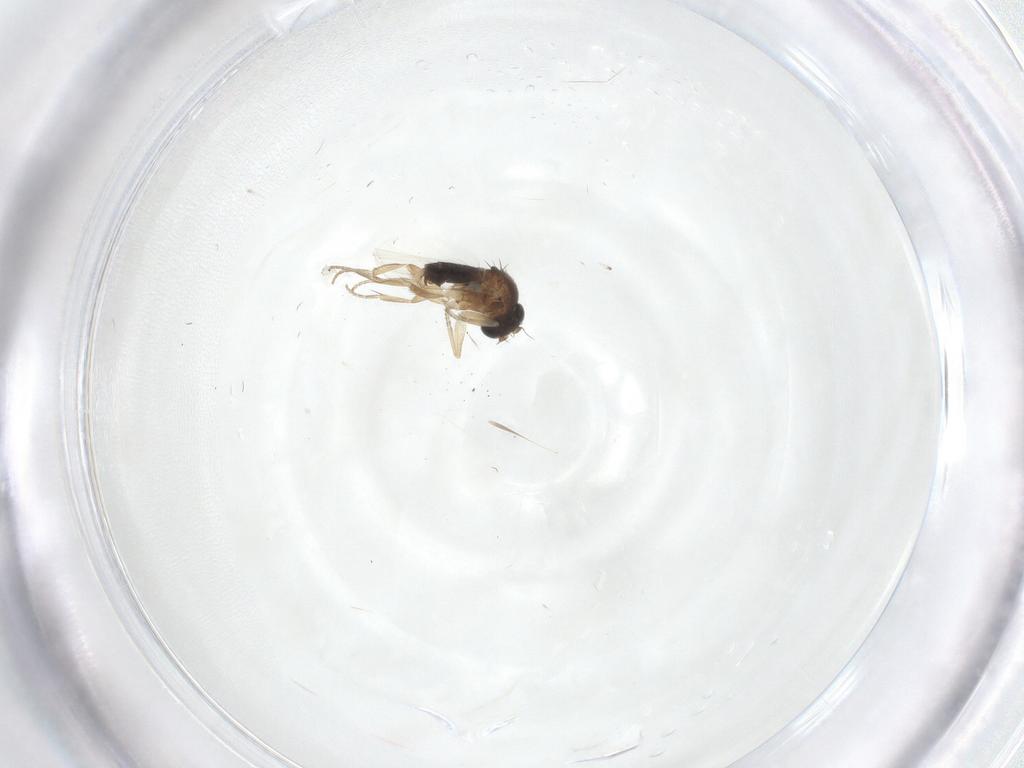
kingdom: Animalia
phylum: Arthropoda
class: Insecta
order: Diptera
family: Phoridae
